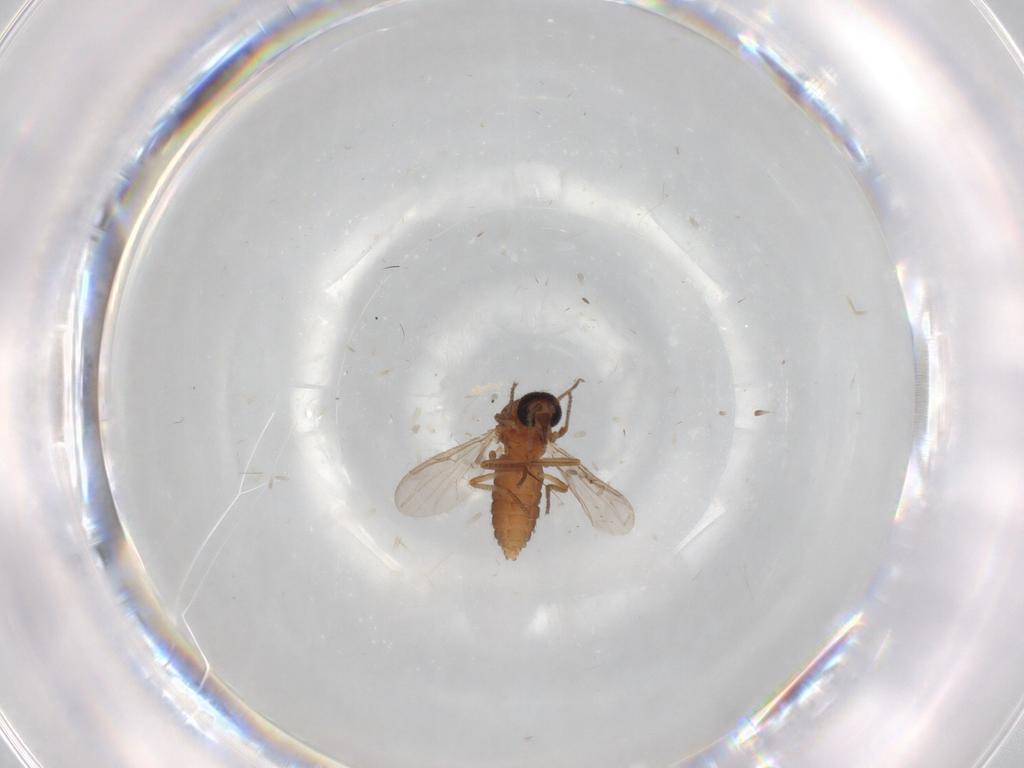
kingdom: Animalia
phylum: Arthropoda
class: Insecta
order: Diptera
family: Ceratopogonidae
